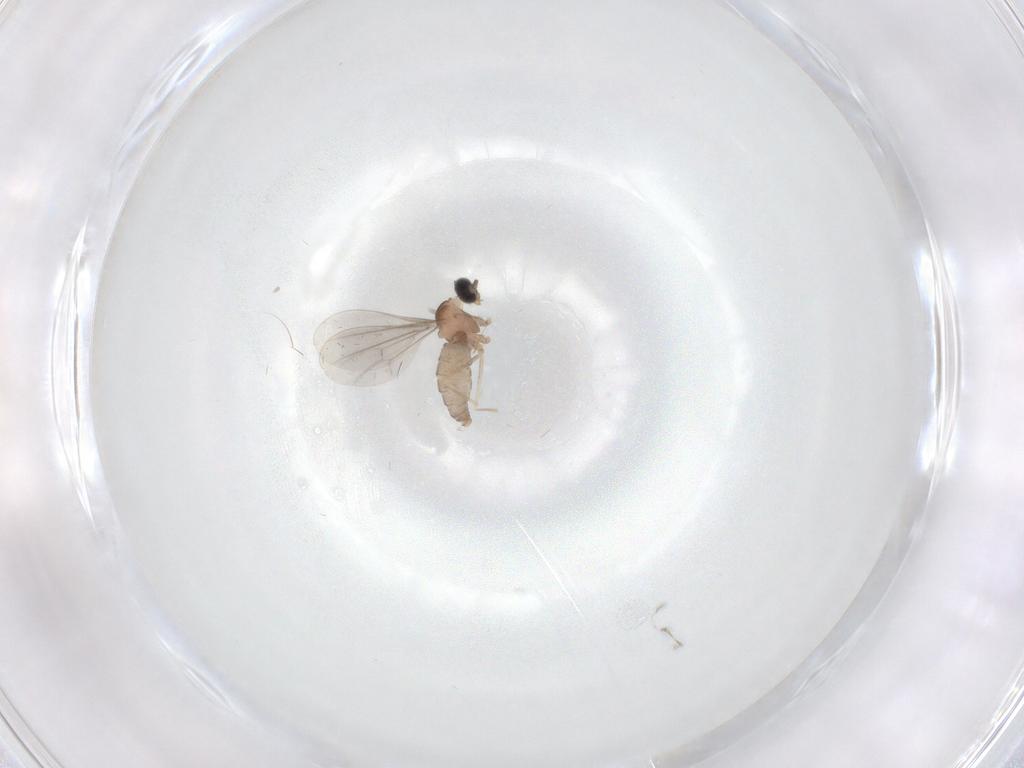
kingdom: Animalia
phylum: Arthropoda
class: Insecta
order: Diptera
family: Cecidomyiidae
